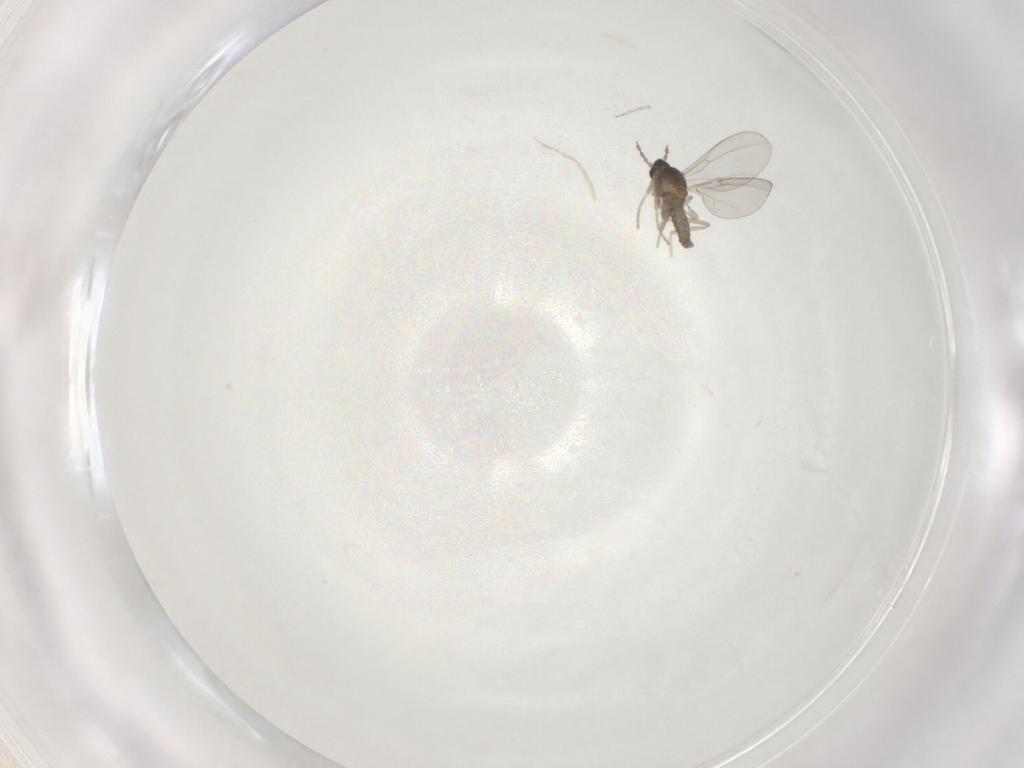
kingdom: Animalia
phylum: Arthropoda
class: Insecta
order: Diptera
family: Cecidomyiidae
